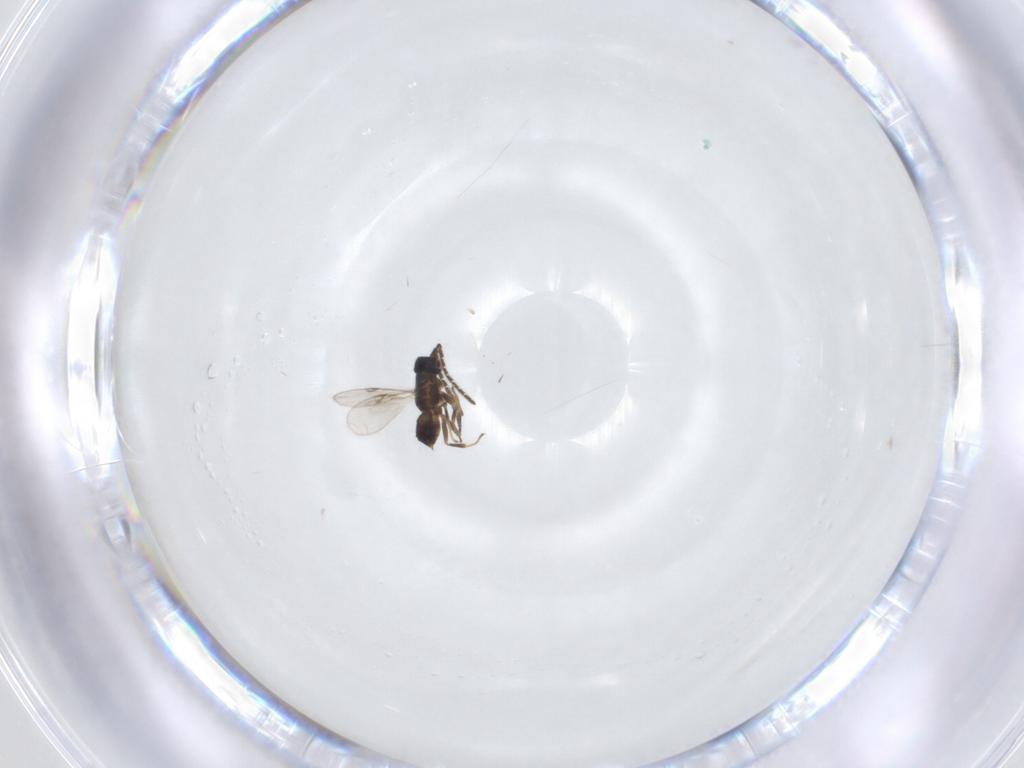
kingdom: Animalia
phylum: Arthropoda
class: Insecta
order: Hymenoptera
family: Encyrtidae
